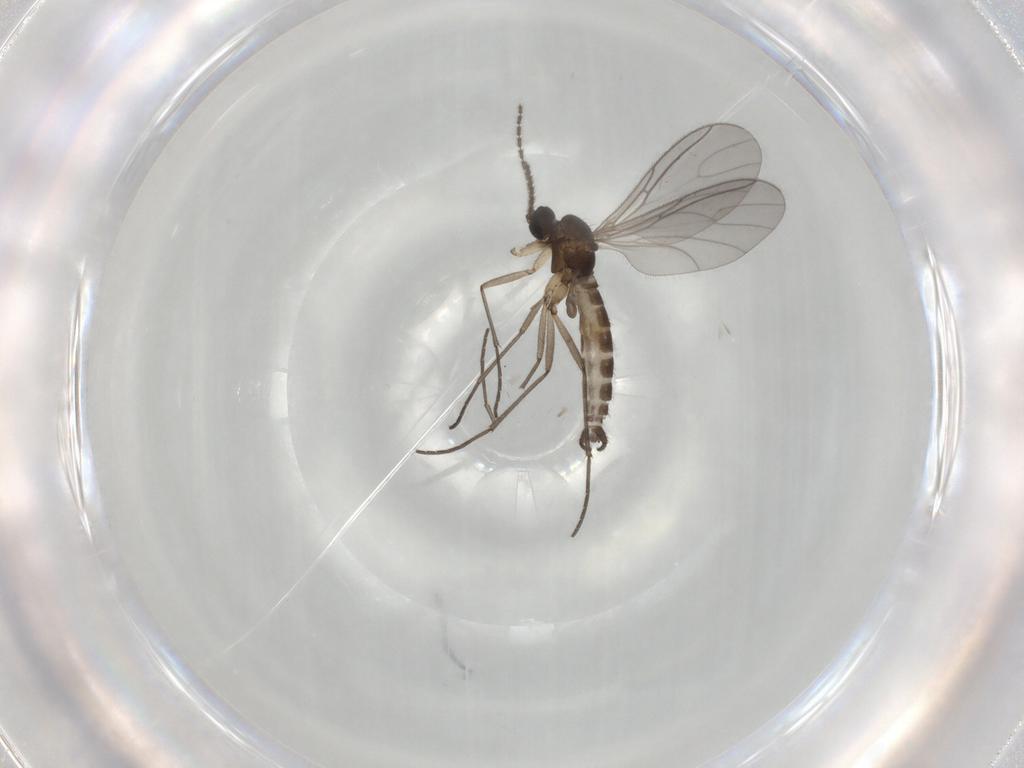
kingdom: Animalia
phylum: Arthropoda
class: Insecta
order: Diptera
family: Sciaridae
